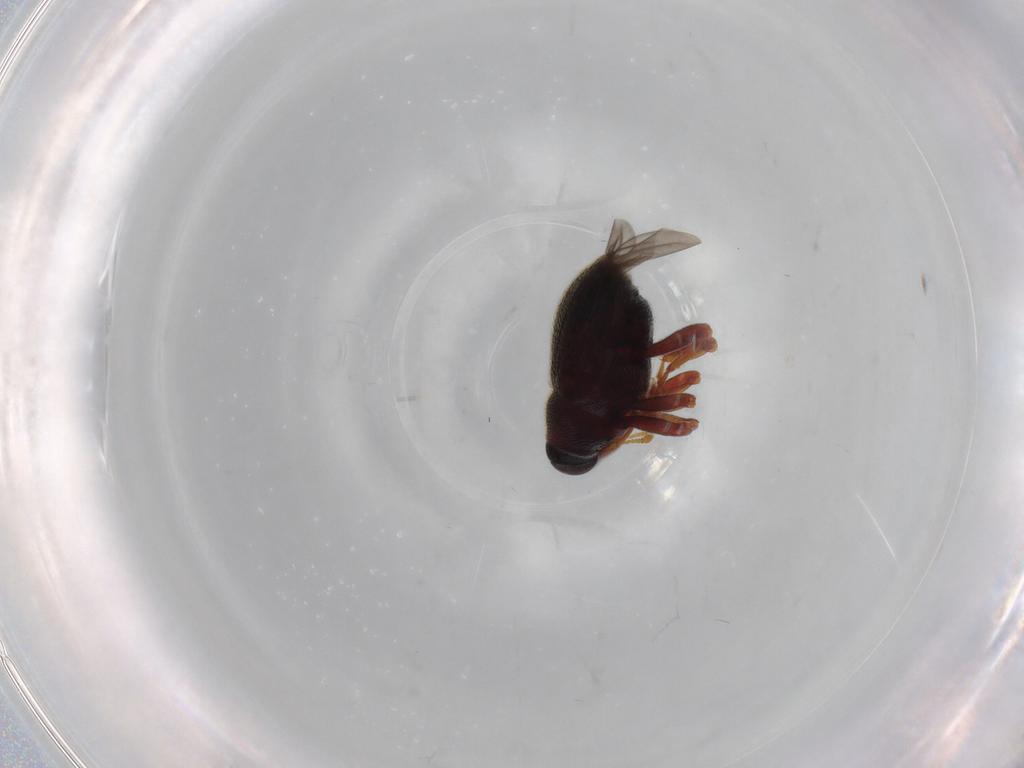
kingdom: Animalia
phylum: Arthropoda
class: Insecta
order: Coleoptera
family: Curculionidae
